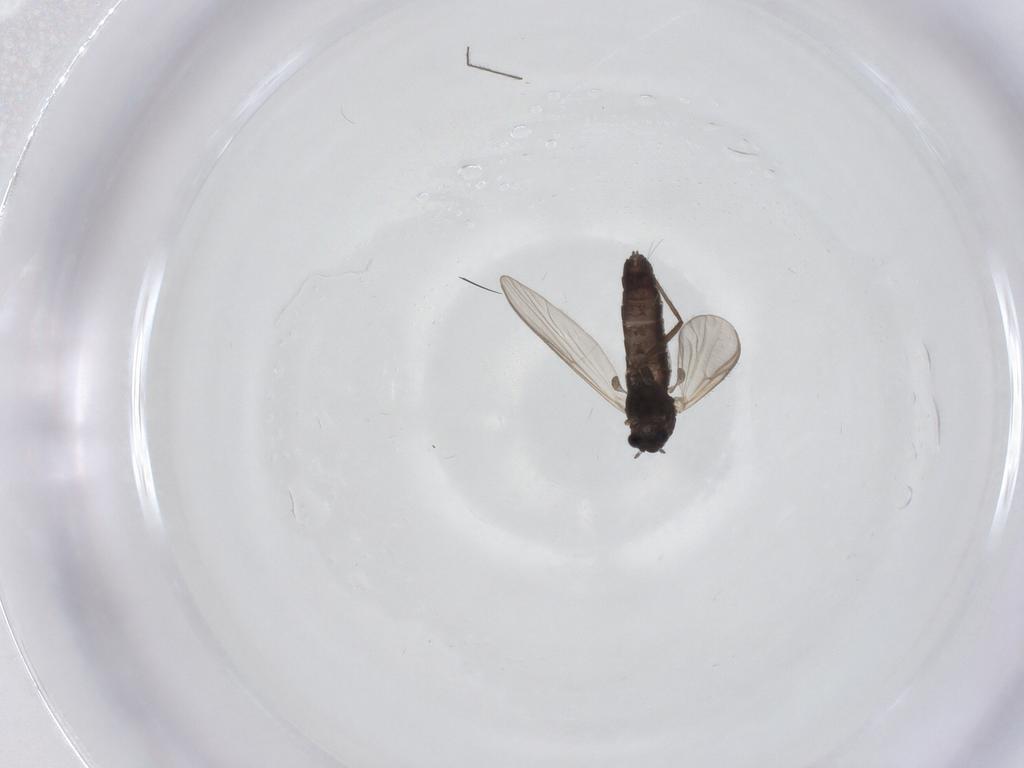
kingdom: Animalia
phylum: Arthropoda
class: Insecta
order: Diptera
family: Chironomidae
